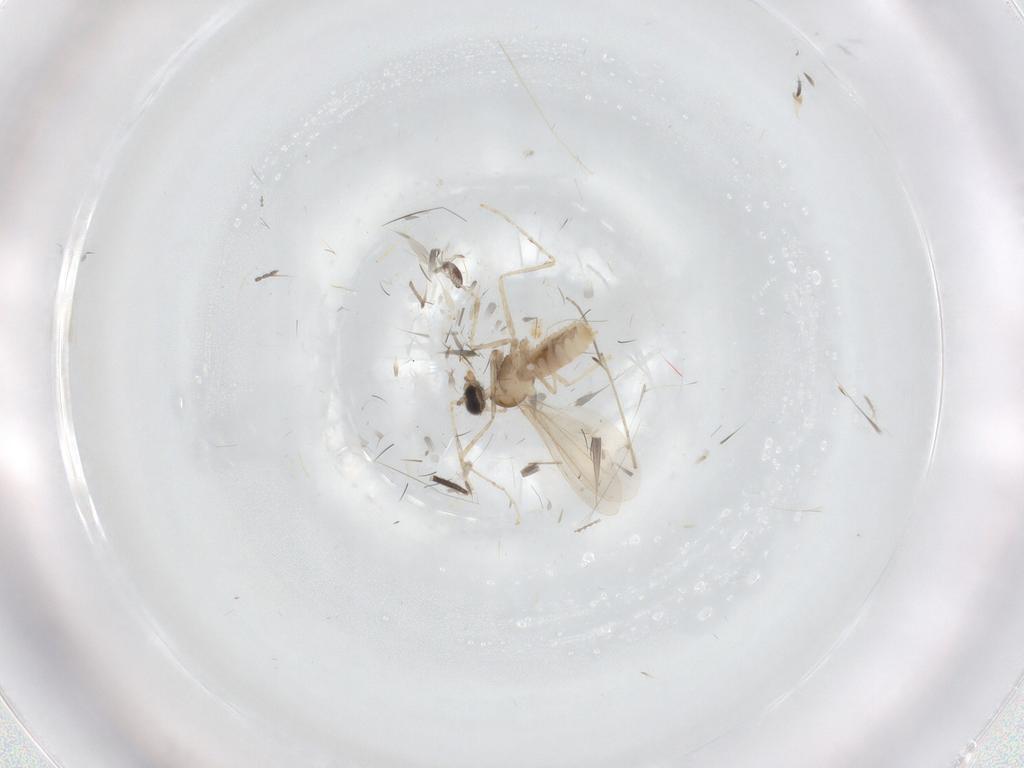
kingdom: Animalia
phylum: Arthropoda
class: Insecta
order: Diptera
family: Cecidomyiidae
